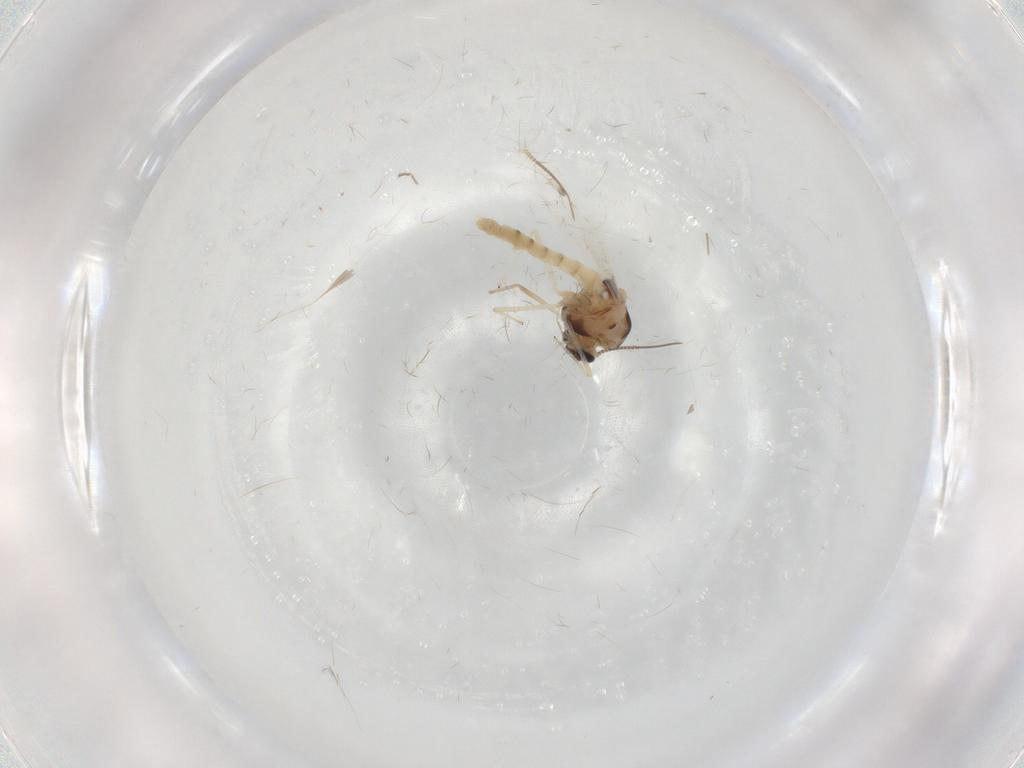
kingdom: Animalia
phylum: Arthropoda
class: Insecta
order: Diptera
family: Chironomidae
